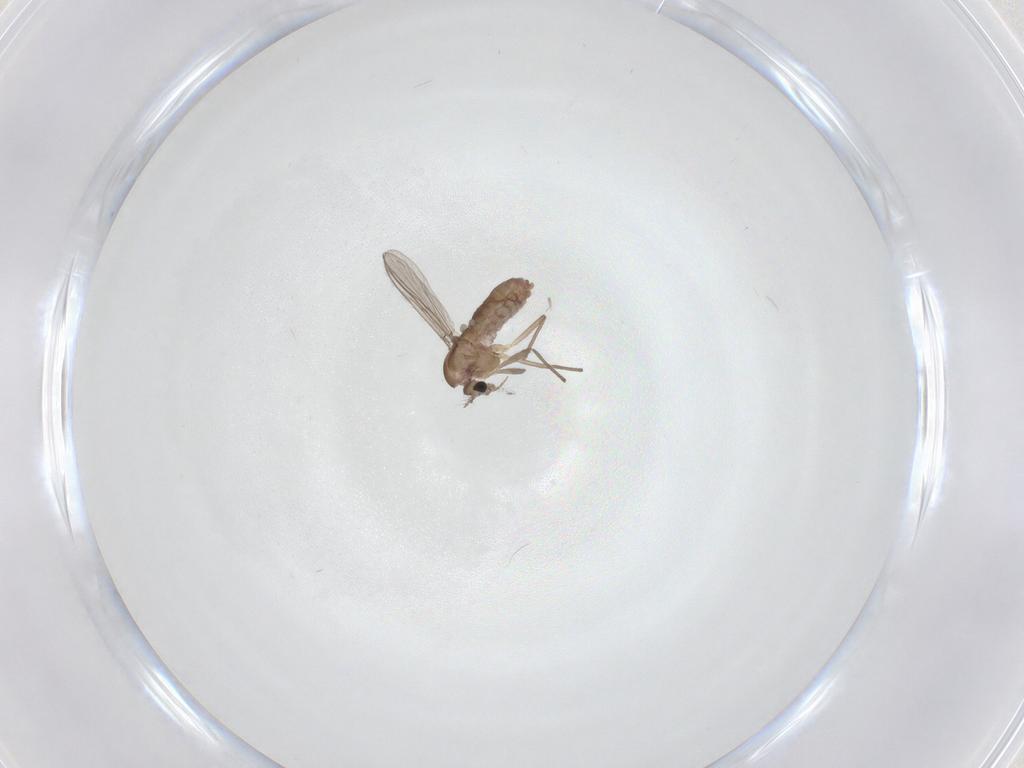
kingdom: Animalia
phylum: Arthropoda
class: Insecta
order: Diptera
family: Chironomidae
